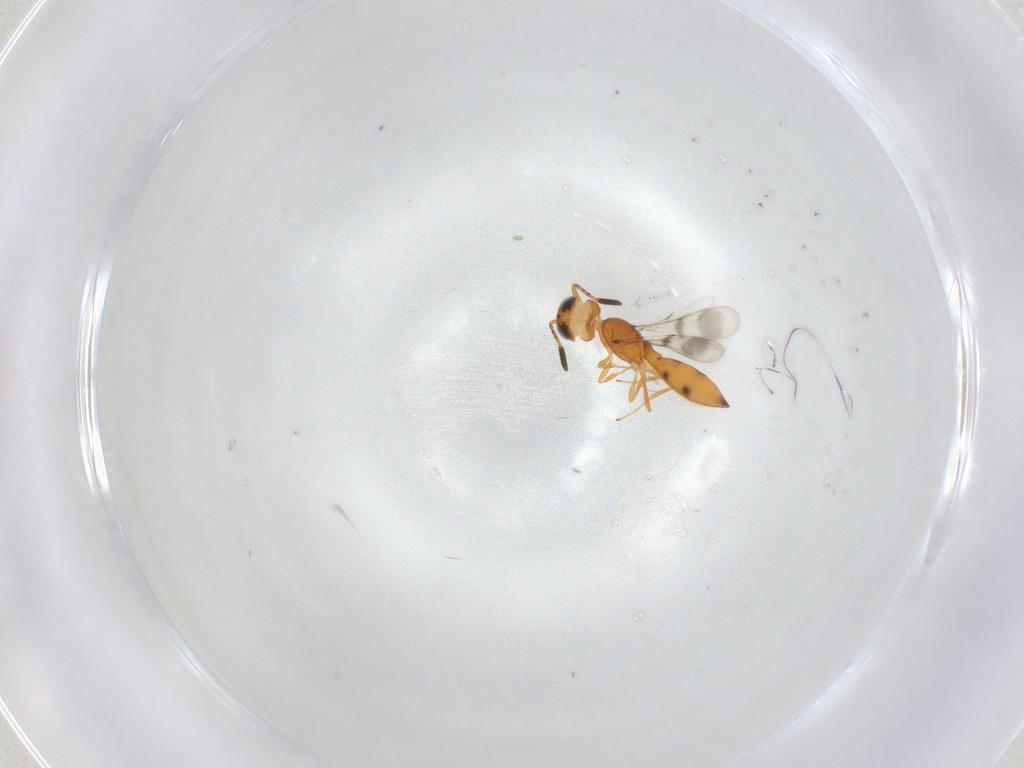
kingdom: Animalia
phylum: Arthropoda
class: Insecta
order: Hymenoptera
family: Scelionidae
